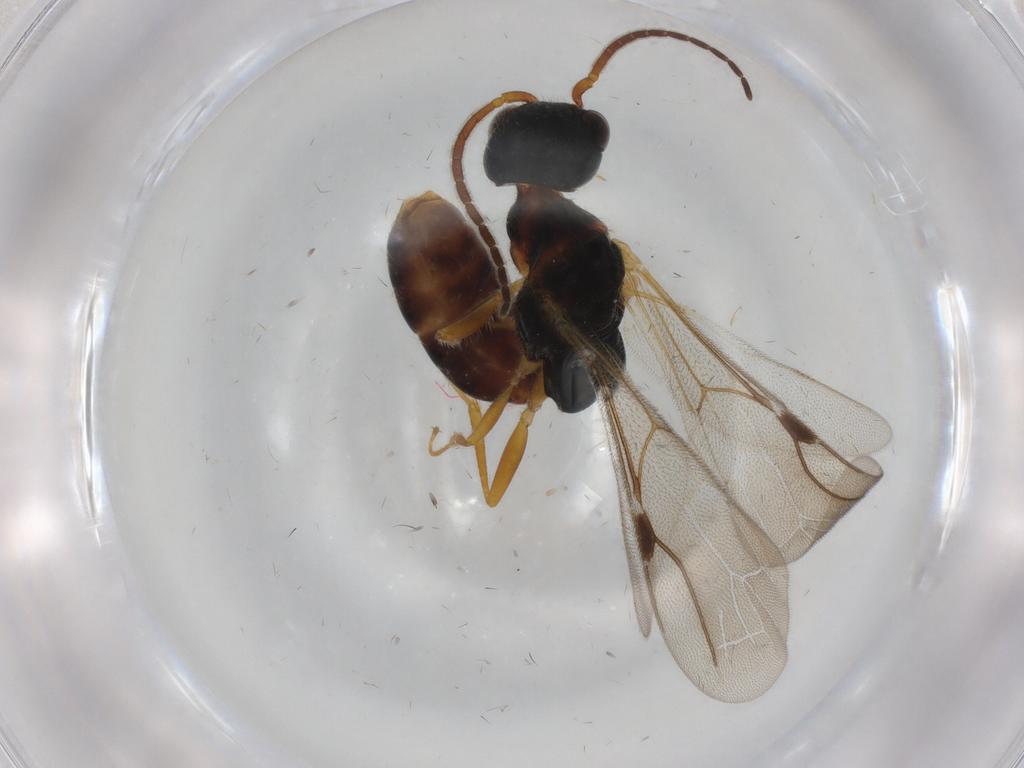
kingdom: Animalia
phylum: Arthropoda
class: Insecta
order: Hymenoptera
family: Bethylidae
